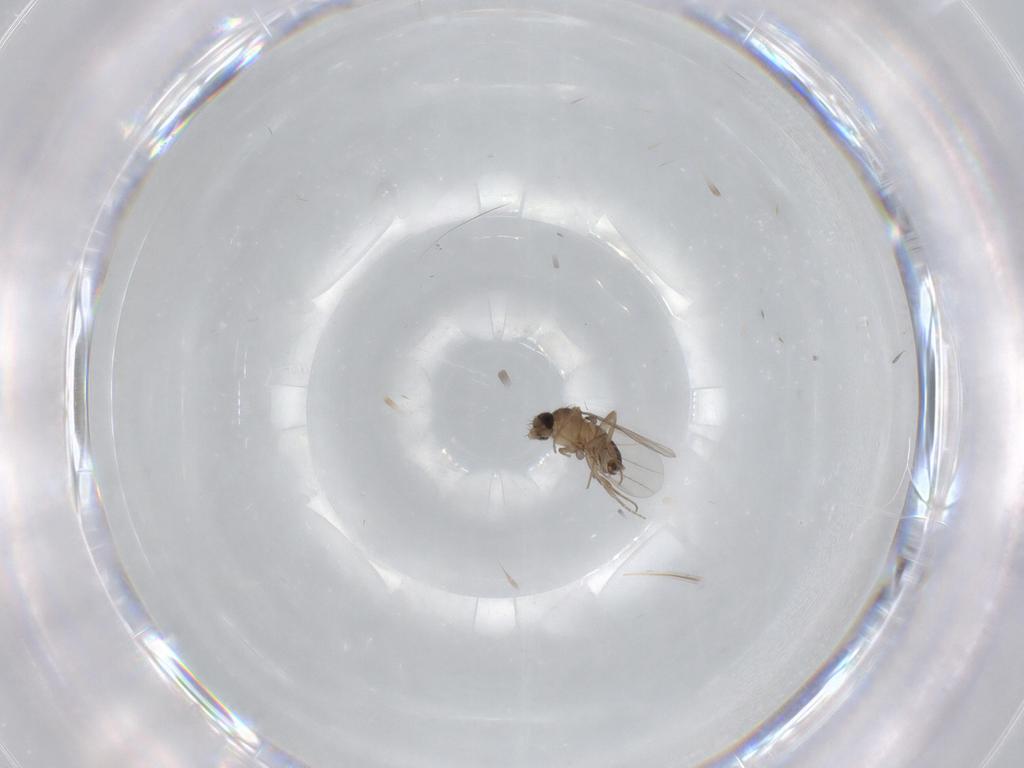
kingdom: Animalia
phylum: Arthropoda
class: Insecta
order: Diptera
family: Phoridae
